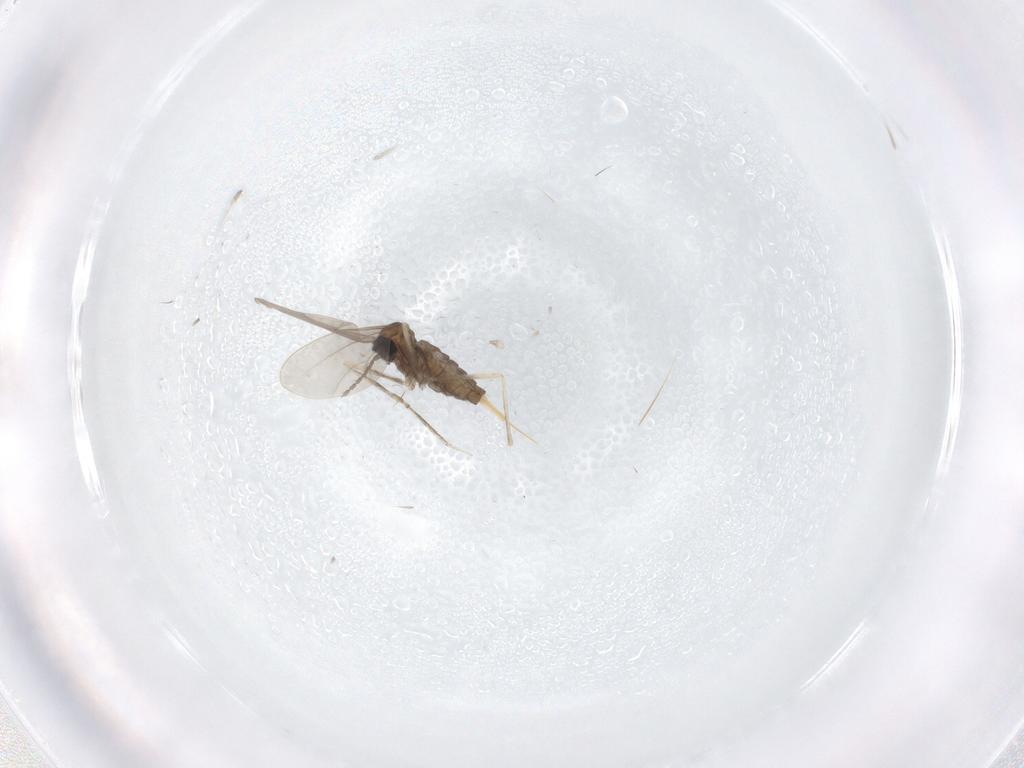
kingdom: Animalia
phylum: Arthropoda
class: Insecta
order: Diptera
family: Cecidomyiidae
